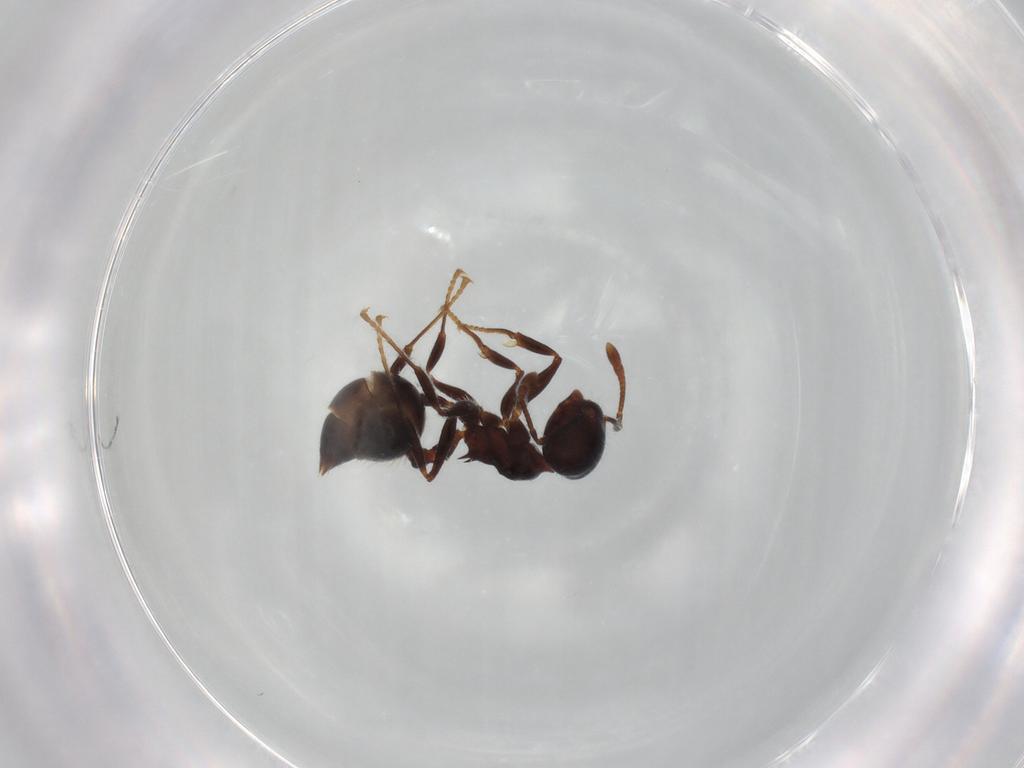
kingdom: Animalia
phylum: Arthropoda
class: Insecta
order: Hymenoptera
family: Formicidae
